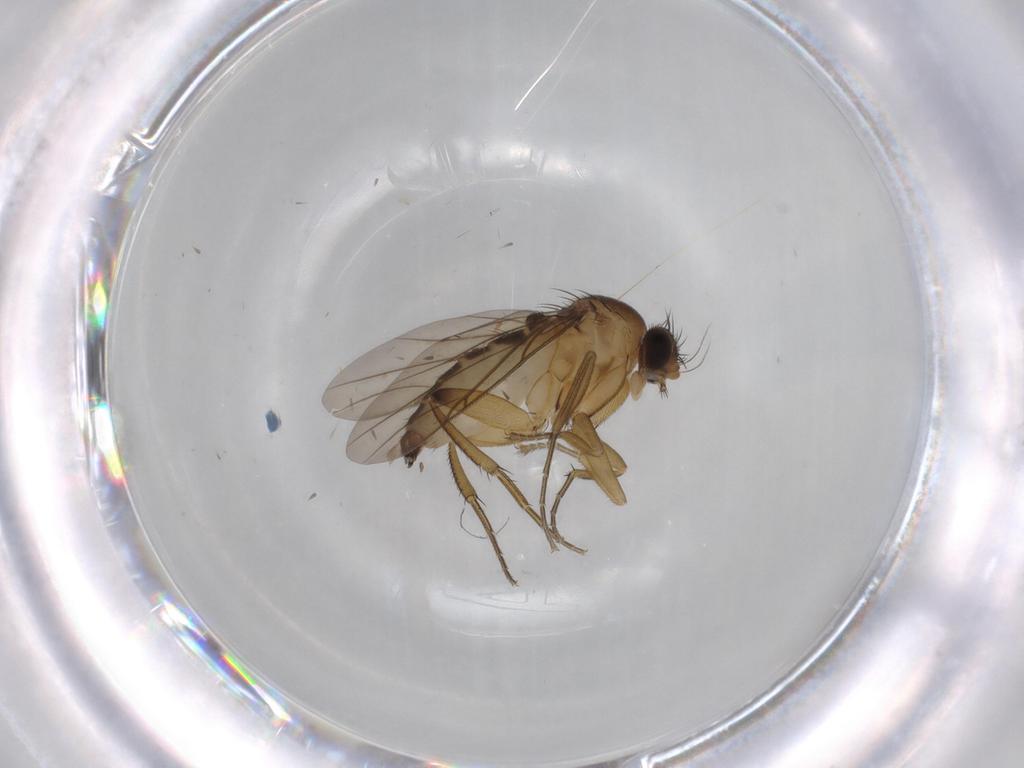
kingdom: Animalia
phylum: Arthropoda
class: Insecta
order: Diptera
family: Phoridae
